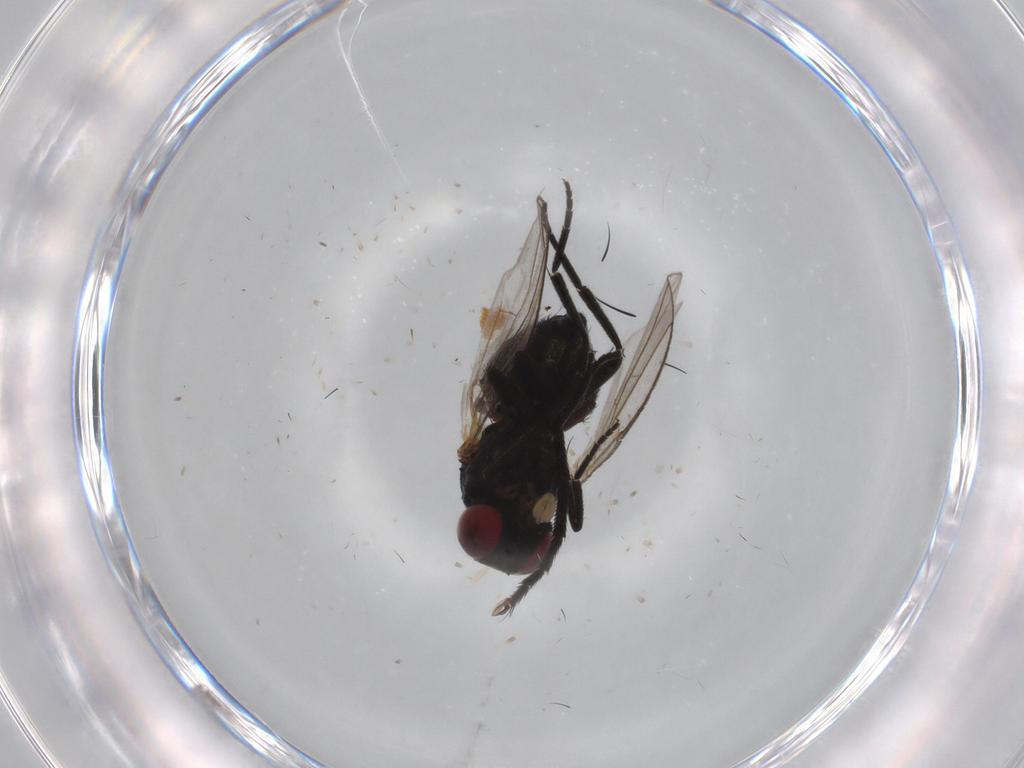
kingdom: Animalia
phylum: Arthropoda
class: Insecta
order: Diptera
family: Agromyzidae
